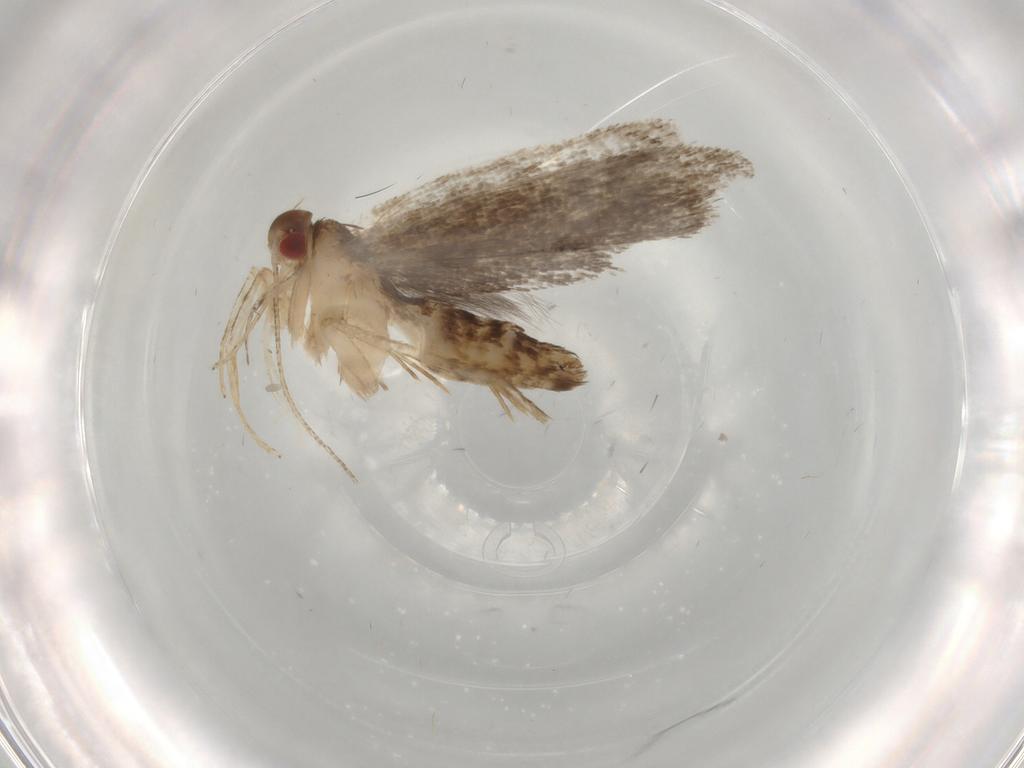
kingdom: Animalia
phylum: Arthropoda
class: Insecta
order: Lepidoptera
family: Gelechiidae
